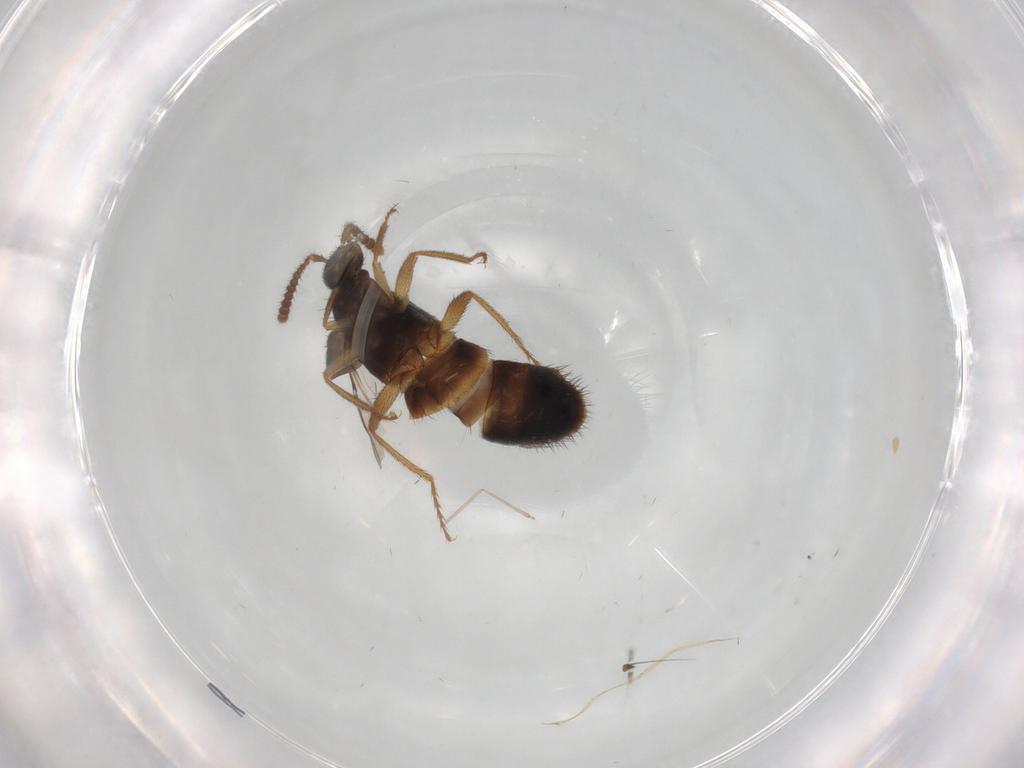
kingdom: Animalia
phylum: Arthropoda
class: Insecta
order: Coleoptera
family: Staphylinidae
